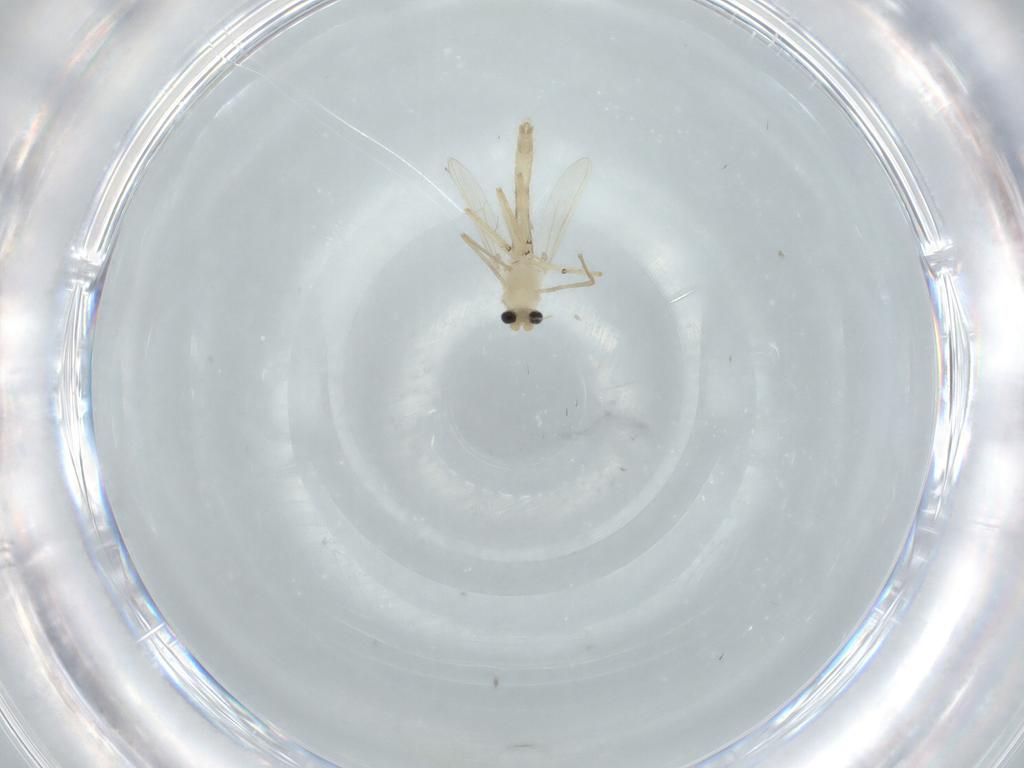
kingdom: Animalia
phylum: Arthropoda
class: Insecta
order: Diptera
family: Chironomidae
